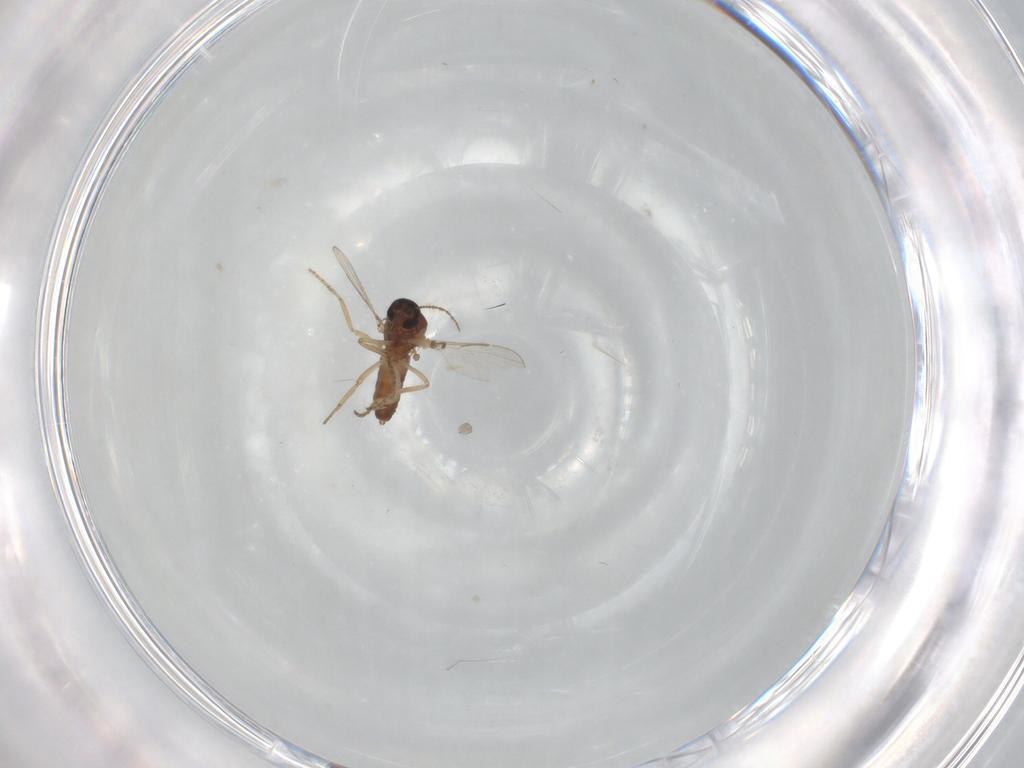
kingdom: Animalia
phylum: Arthropoda
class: Insecta
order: Diptera
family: Ceratopogonidae
